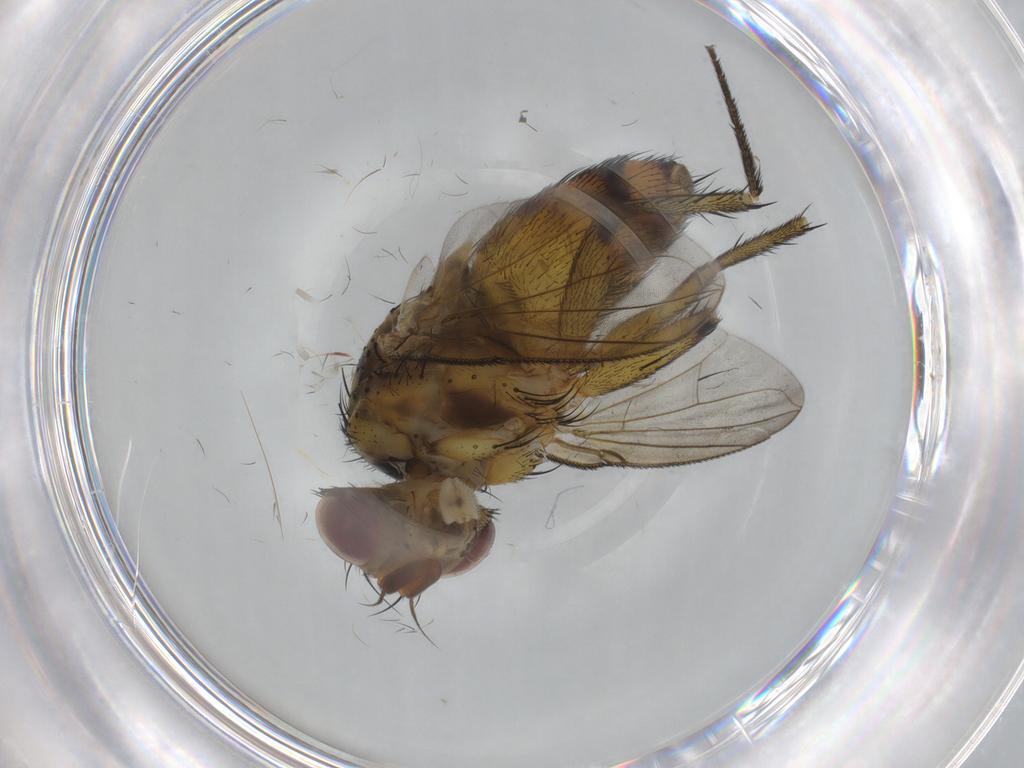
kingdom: Animalia
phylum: Arthropoda
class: Insecta
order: Diptera
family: Tachinidae
